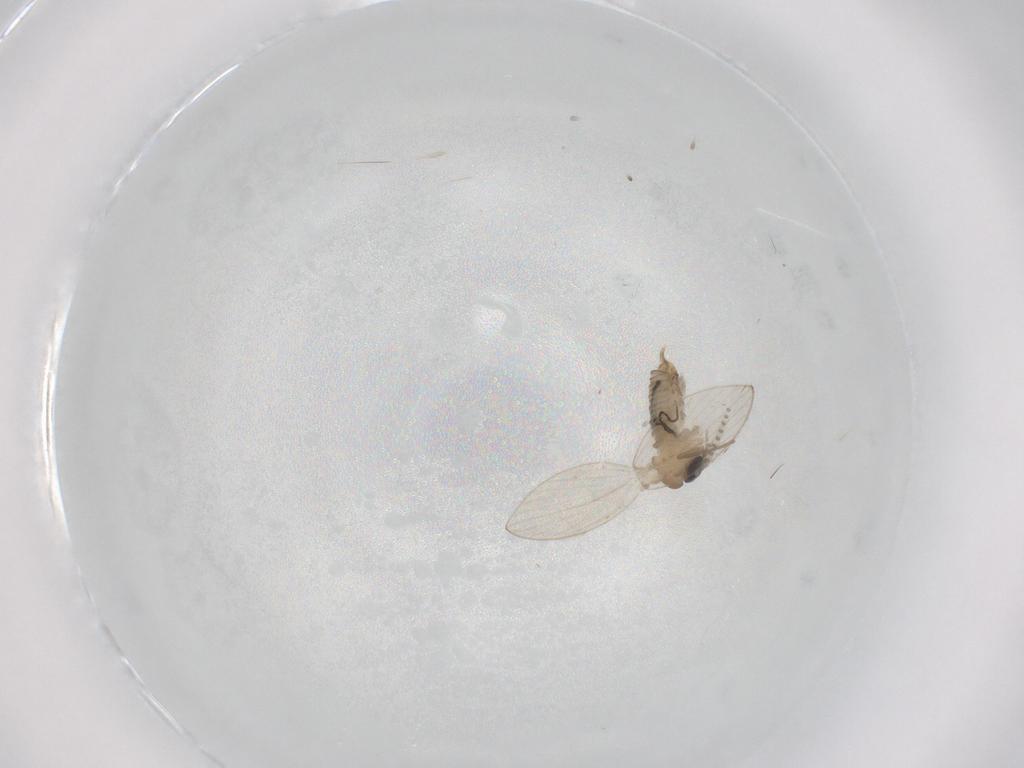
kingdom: Animalia
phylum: Arthropoda
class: Insecta
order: Diptera
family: Psychodidae
